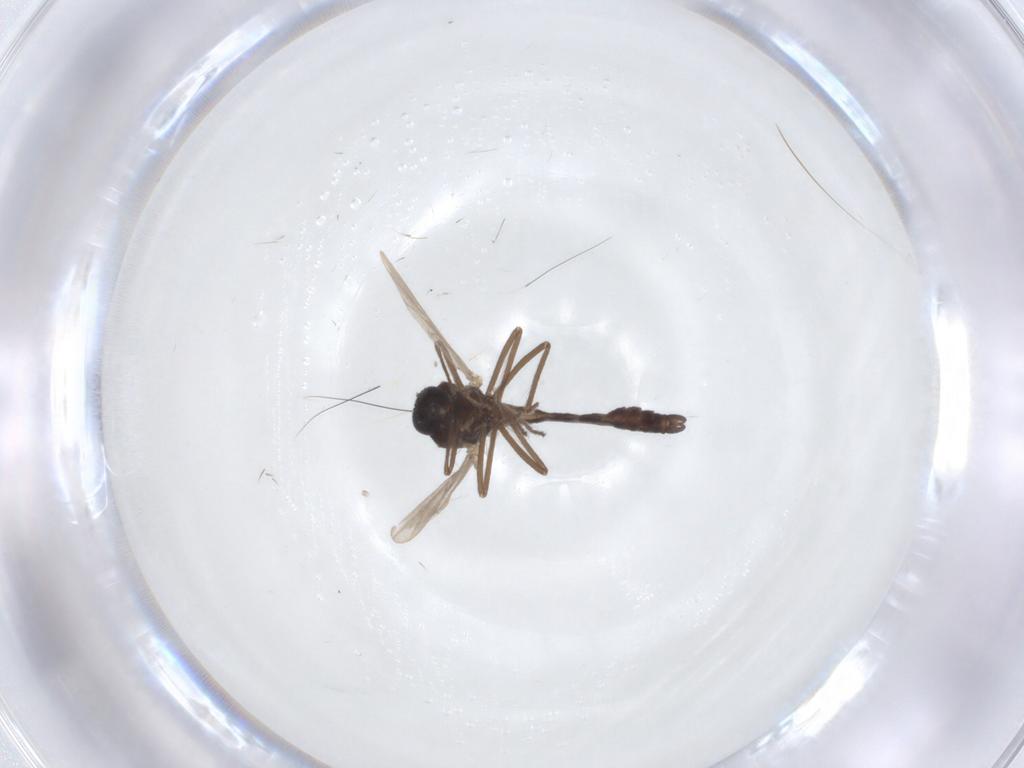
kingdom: Animalia
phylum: Arthropoda
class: Insecta
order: Diptera
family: Ceratopogonidae
